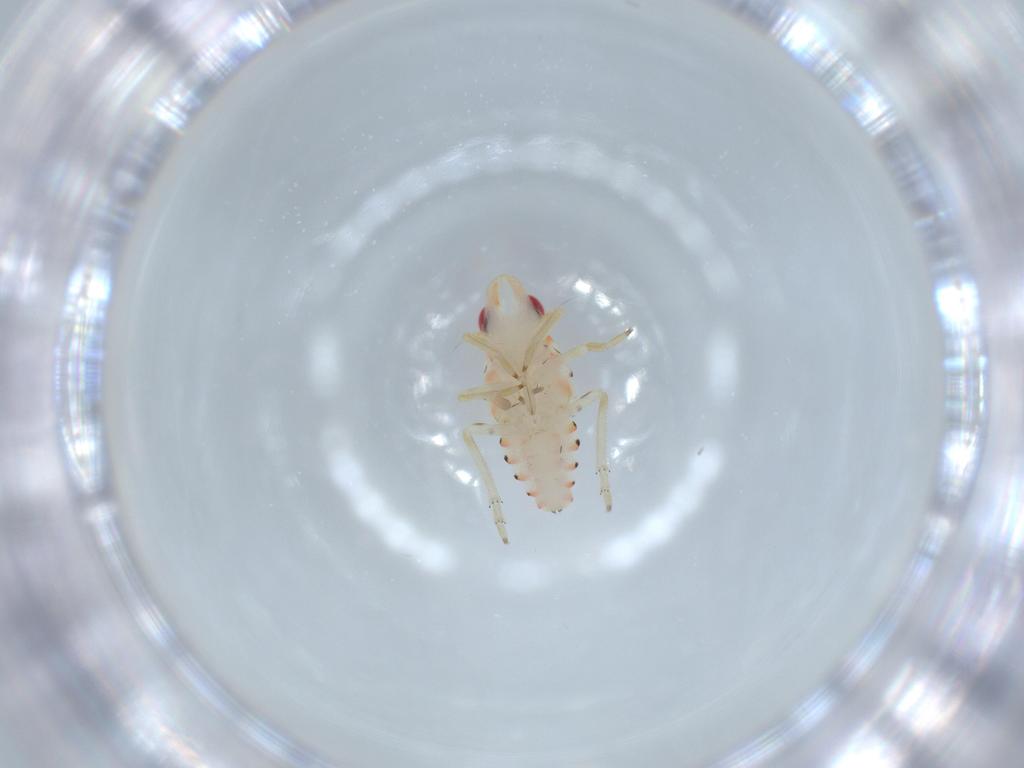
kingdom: Animalia
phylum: Arthropoda
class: Insecta
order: Hemiptera
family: Tropiduchidae
